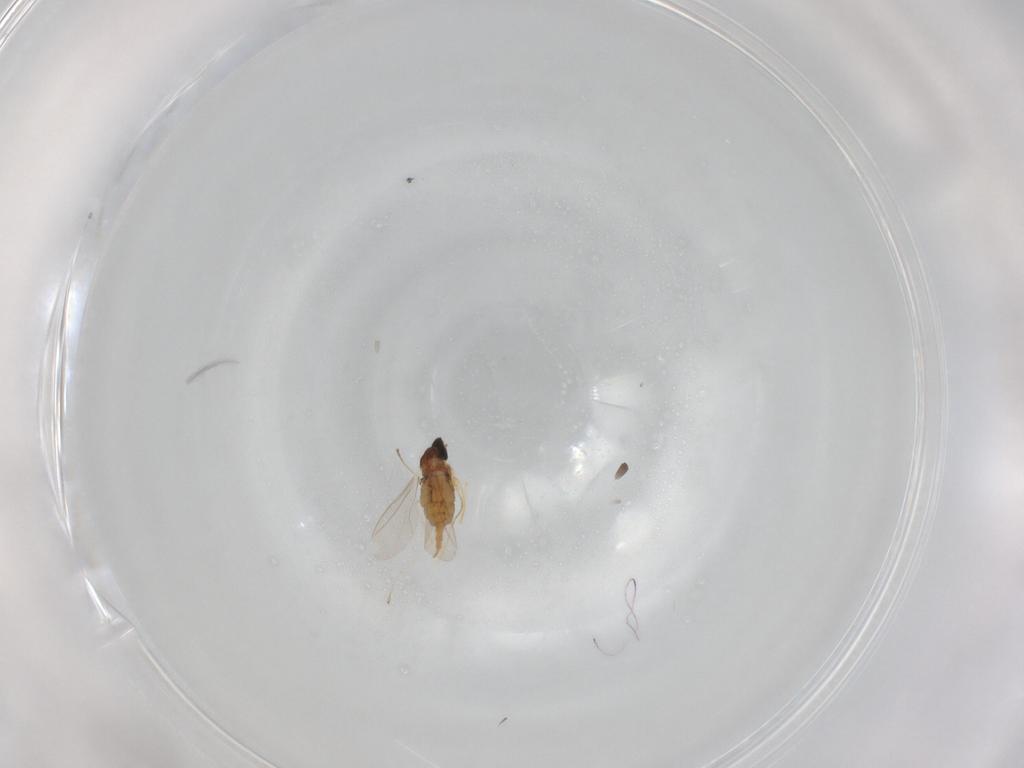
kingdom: Animalia
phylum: Arthropoda
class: Insecta
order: Diptera
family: Cecidomyiidae
